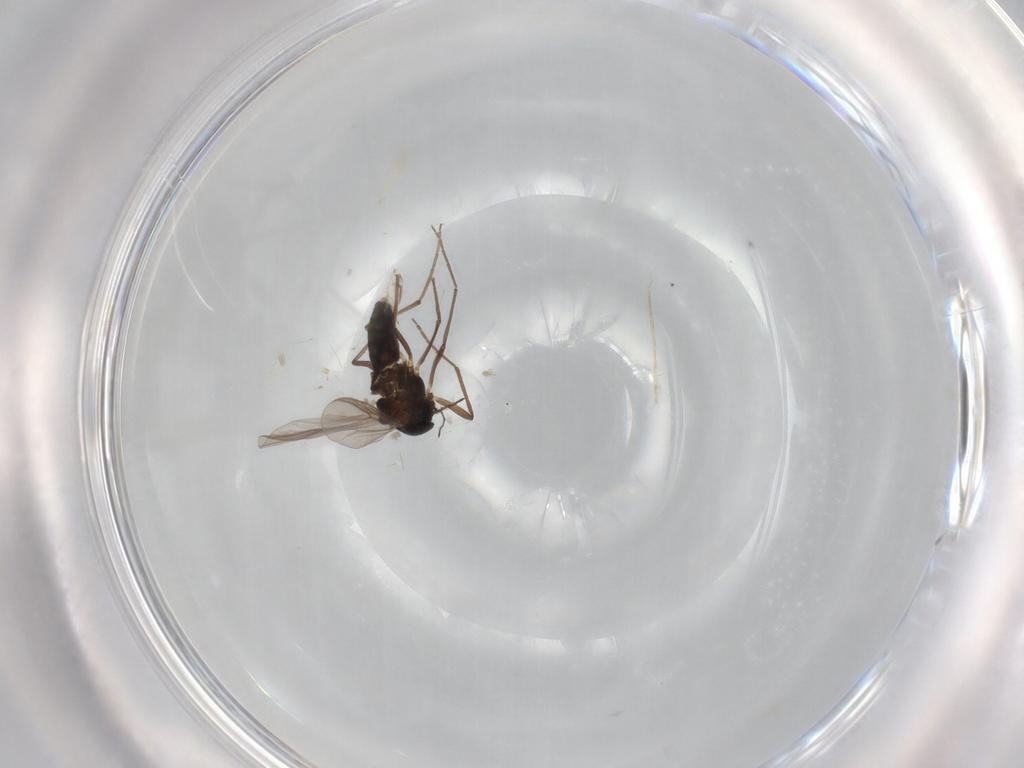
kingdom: Animalia
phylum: Arthropoda
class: Insecta
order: Diptera
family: Chironomidae
